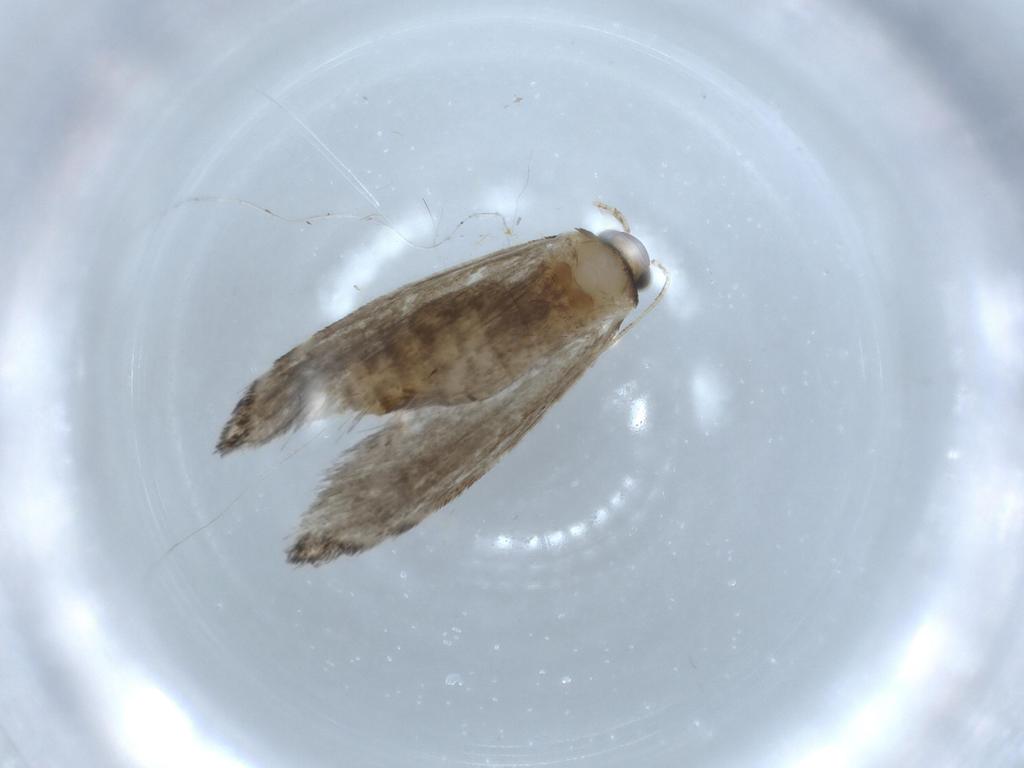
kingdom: Animalia
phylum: Arthropoda
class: Insecta
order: Lepidoptera
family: Tineidae
